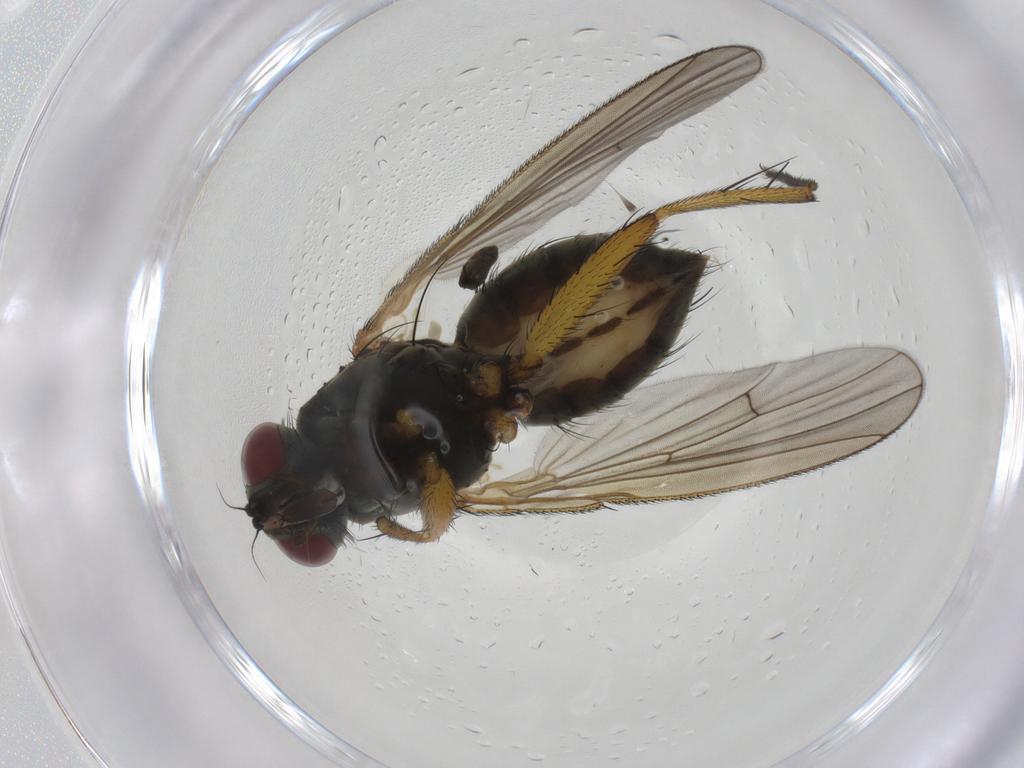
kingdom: Animalia
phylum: Arthropoda
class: Insecta
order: Diptera
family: Muscidae
